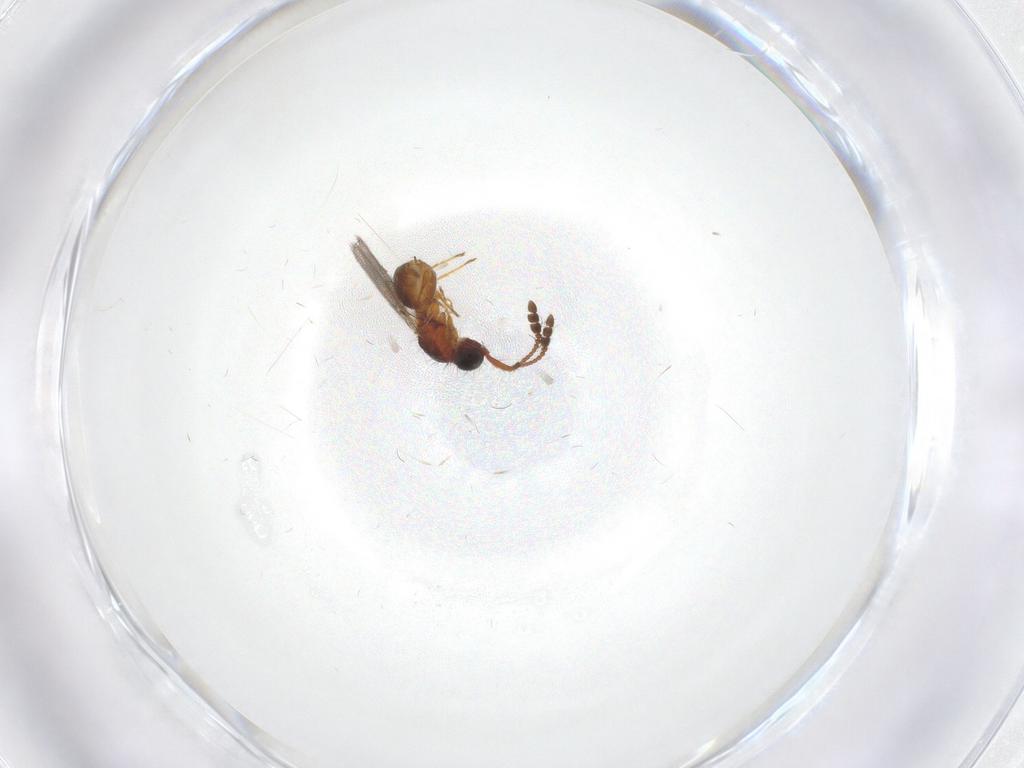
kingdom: Animalia
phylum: Arthropoda
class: Insecta
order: Hymenoptera
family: Diapriidae
